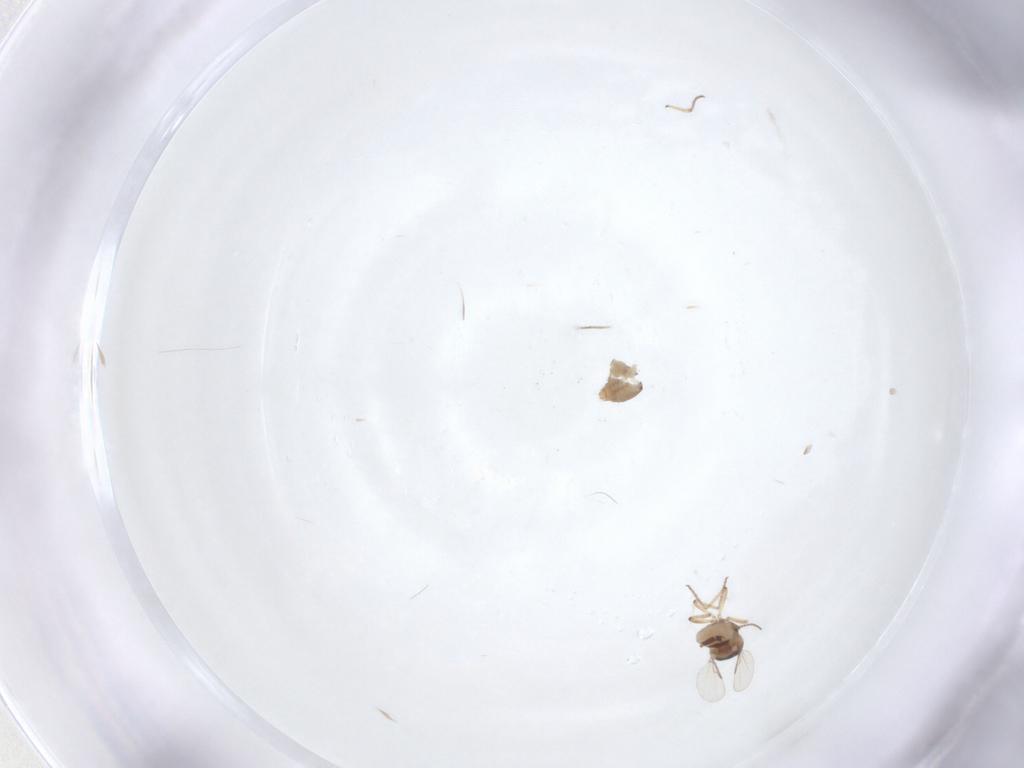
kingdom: Animalia
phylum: Arthropoda
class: Insecta
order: Diptera
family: Ceratopogonidae
